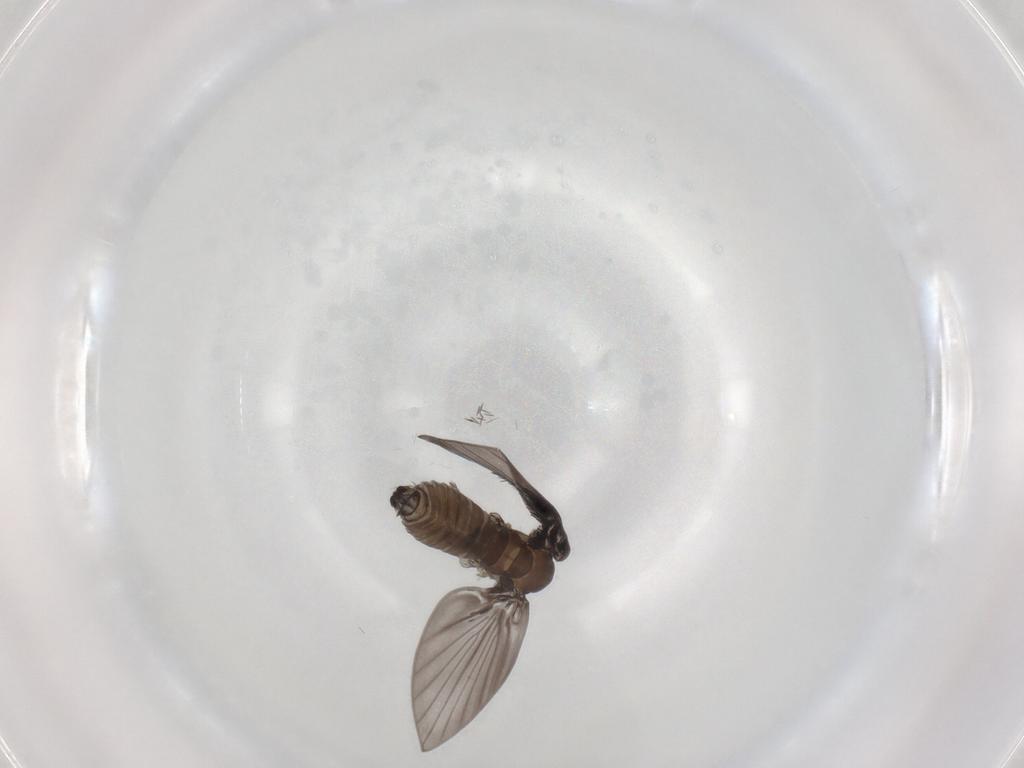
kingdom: Animalia
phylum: Arthropoda
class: Insecta
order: Diptera
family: Psychodidae
